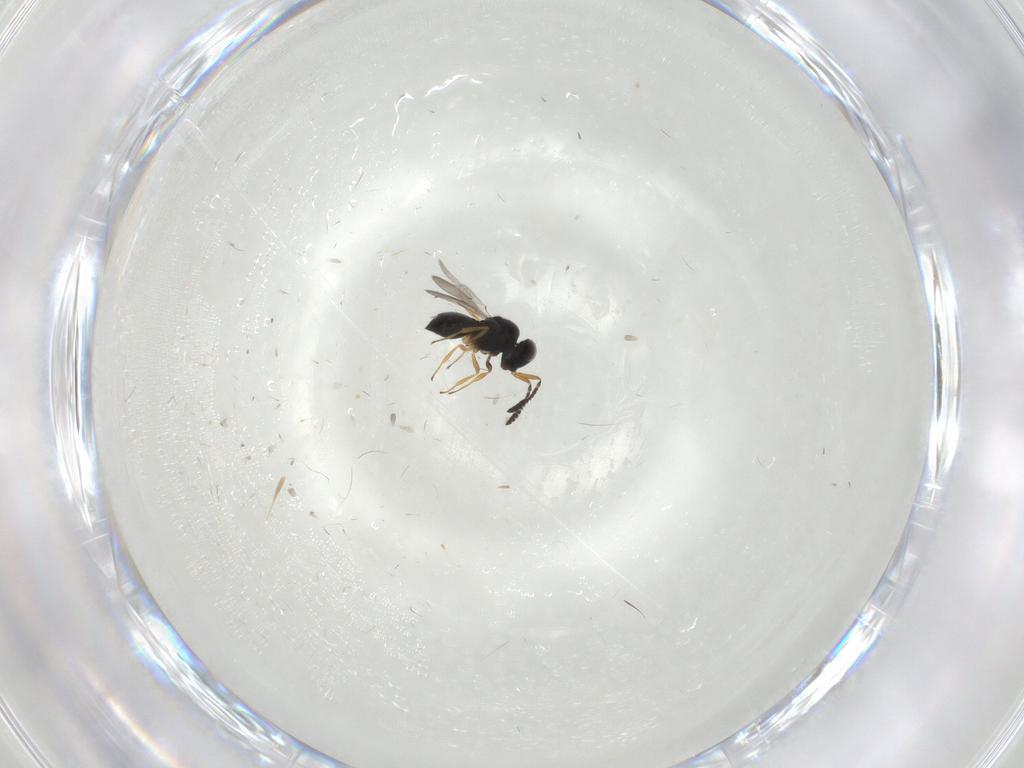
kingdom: Animalia
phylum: Arthropoda
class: Insecta
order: Hymenoptera
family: Scelionidae
